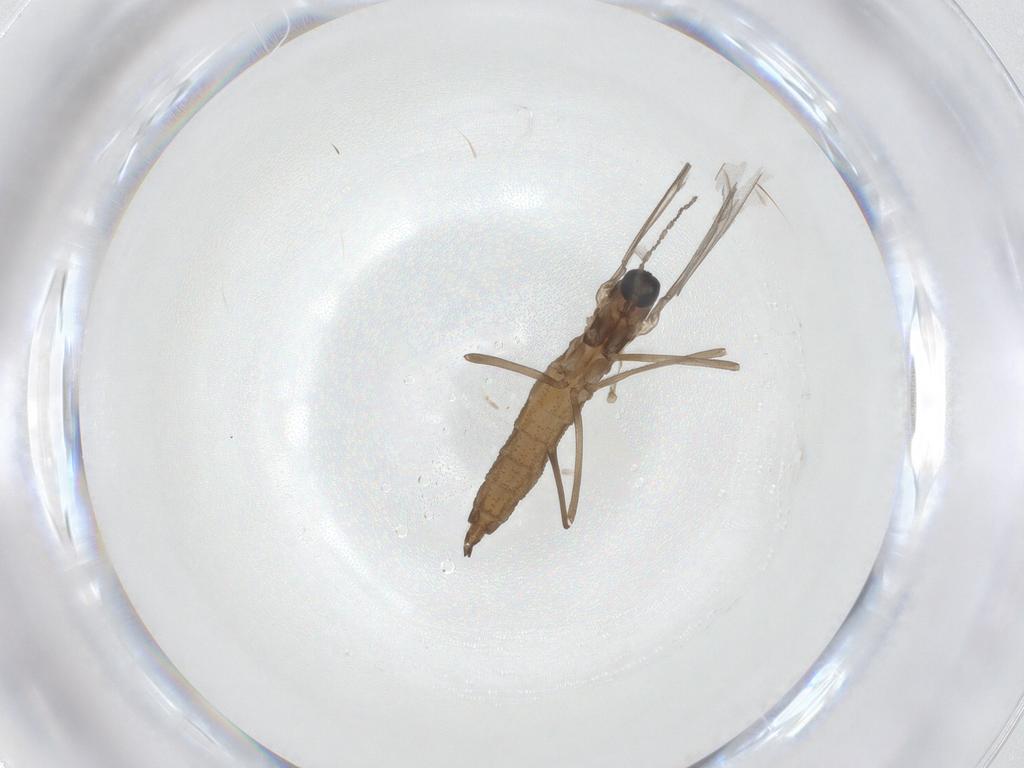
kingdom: Animalia
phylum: Arthropoda
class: Insecta
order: Diptera
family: Cecidomyiidae
